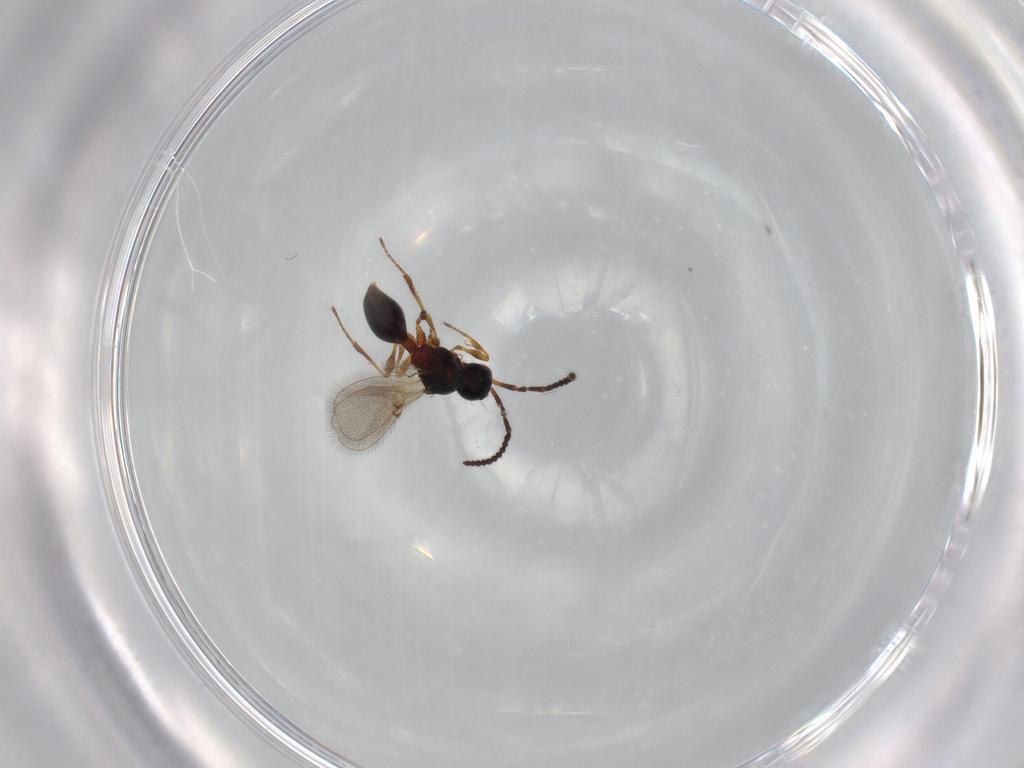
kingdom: Animalia
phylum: Arthropoda
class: Insecta
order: Hymenoptera
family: Diapriidae
